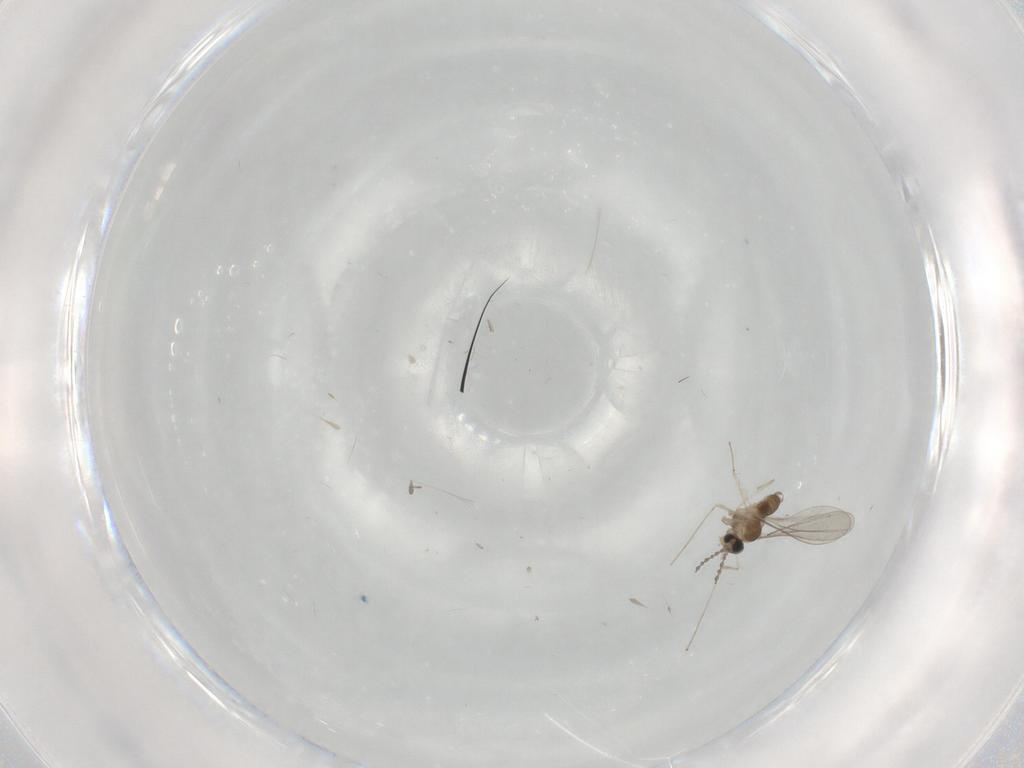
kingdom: Animalia
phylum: Arthropoda
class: Insecta
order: Diptera
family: Cecidomyiidae
